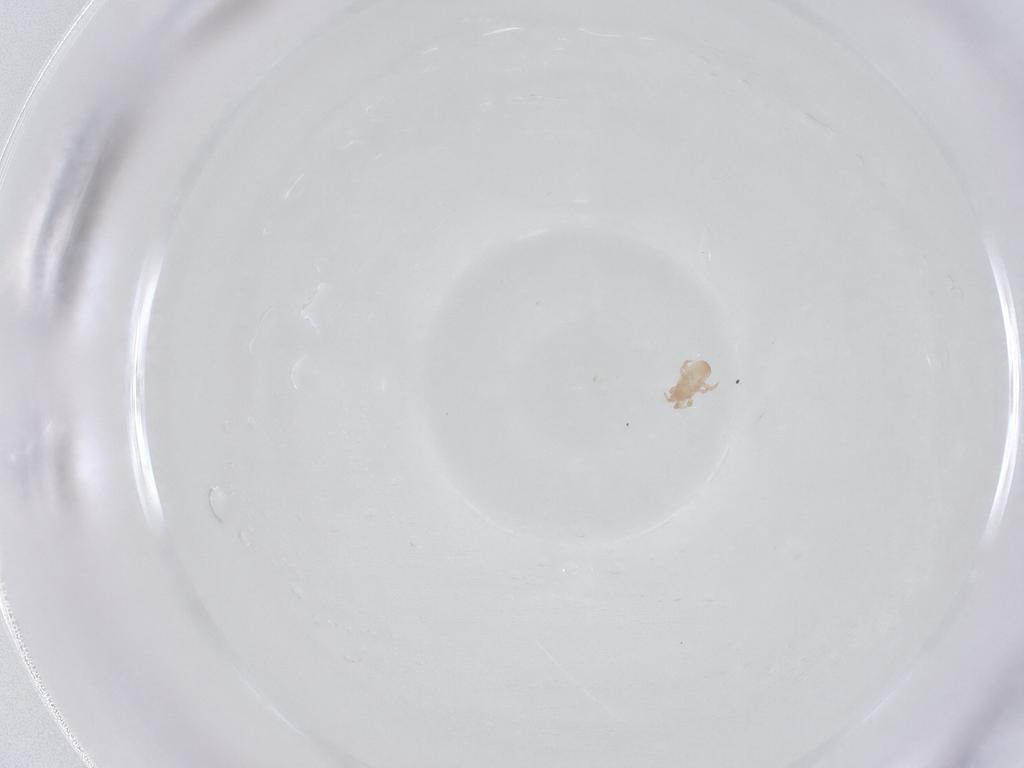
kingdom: Animalia
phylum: Arthropoda
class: Arachnida
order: Mesostigmata
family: Digamasellidae
